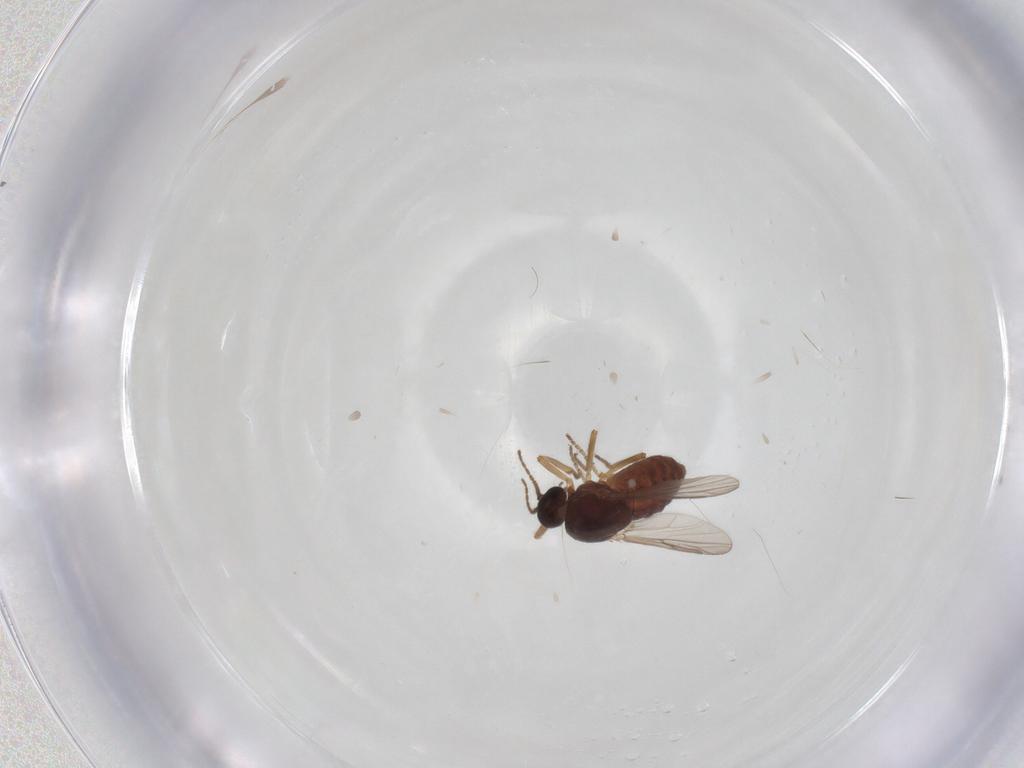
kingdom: Animalia
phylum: Arthropoda
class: Insecta
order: Diptera
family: Ceratopogonidae
